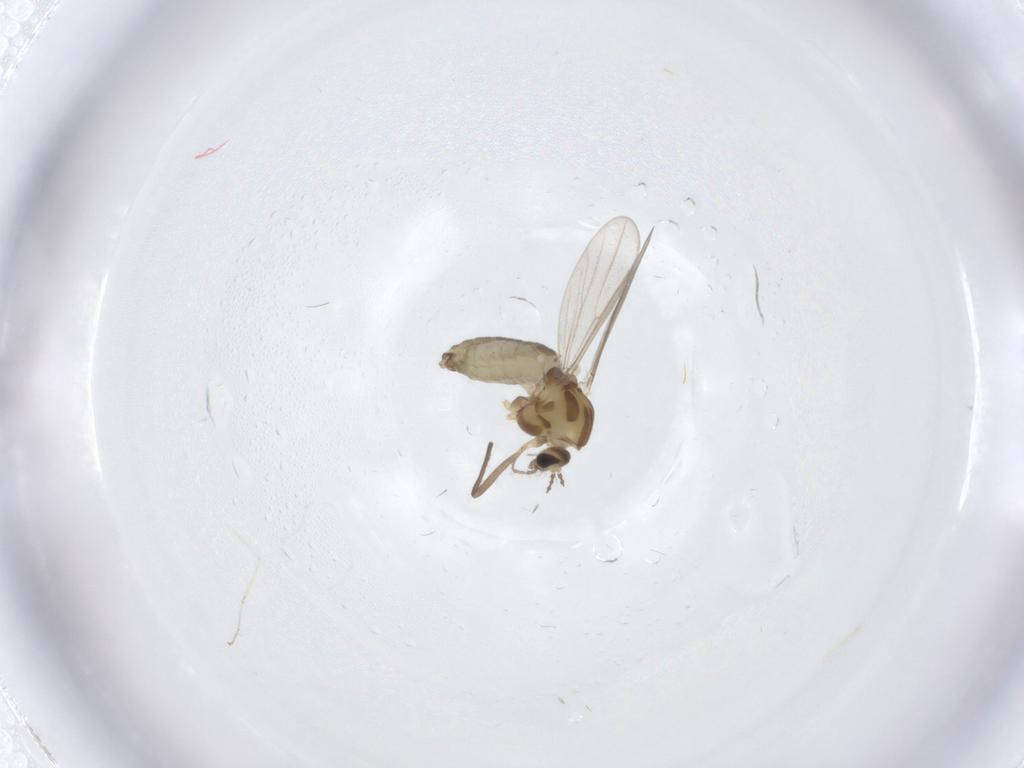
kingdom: Animalia
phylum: Arthropoda
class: Insecta
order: Diptera
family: Chironomidae
